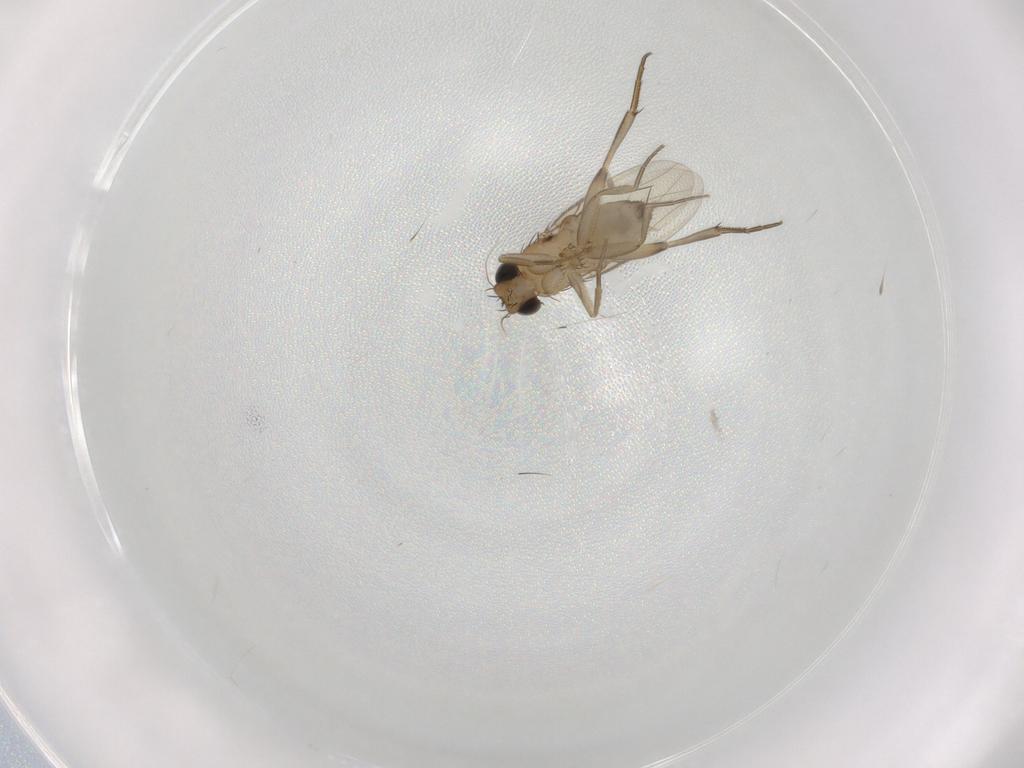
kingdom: Animalia
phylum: Arthropoda
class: Insecta
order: Diptera
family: Phoridae
